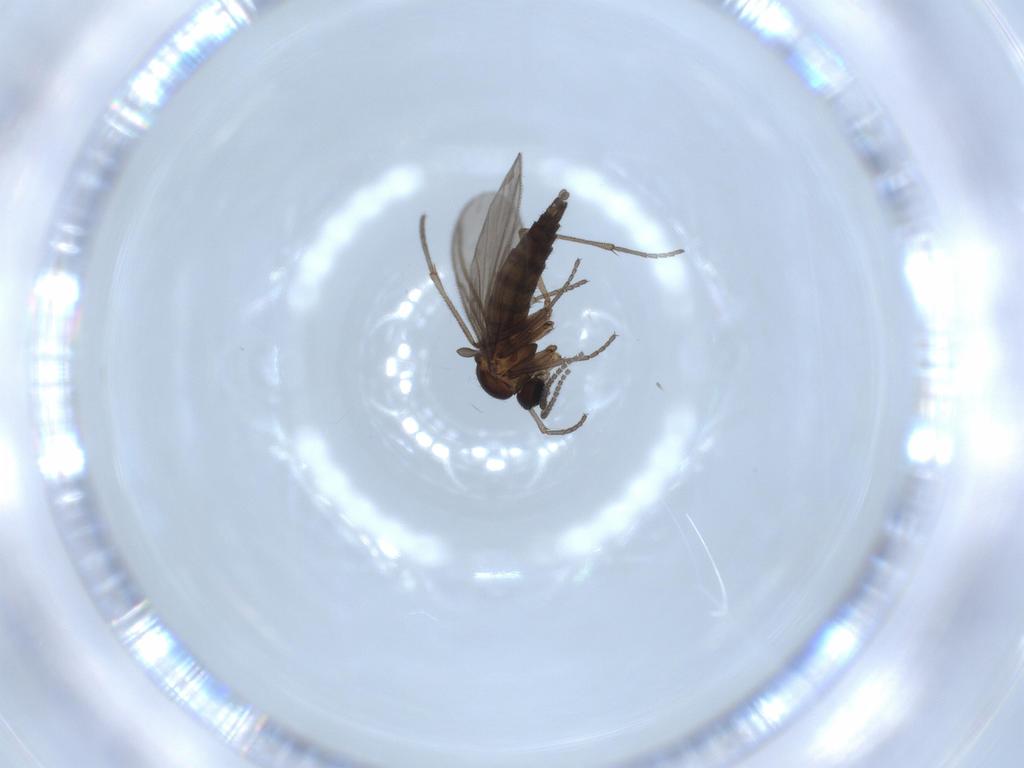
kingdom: Animalia
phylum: Arthropoda
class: Insecta
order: Diptera
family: Sciaridae
